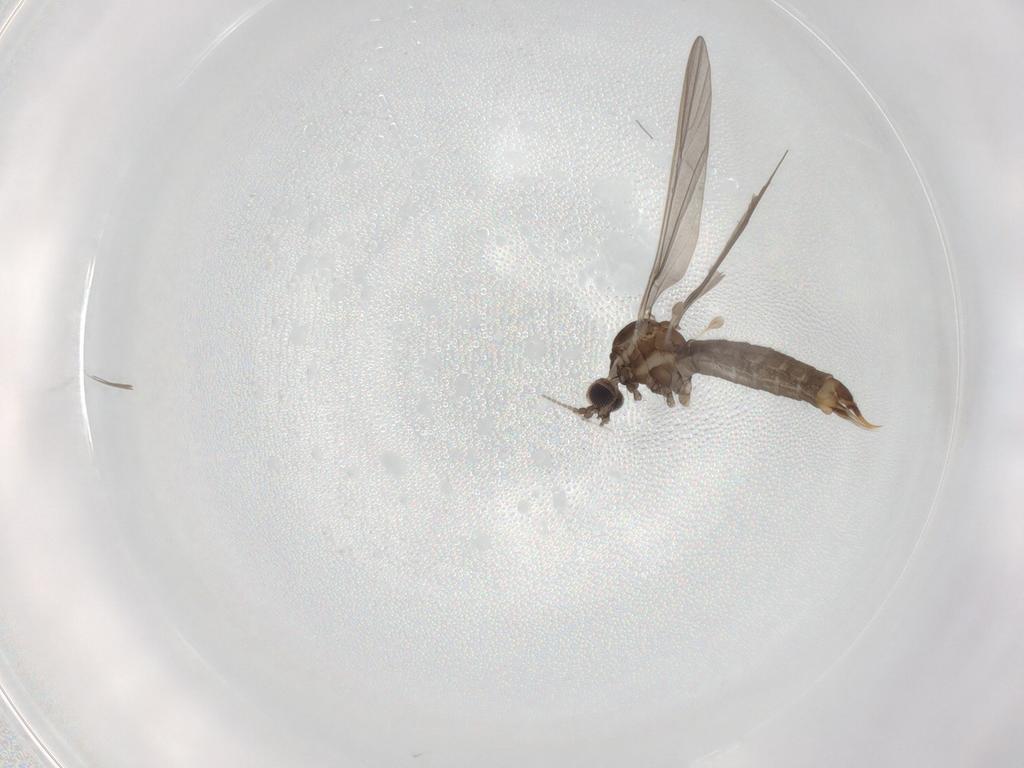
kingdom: Animalia
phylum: Arthropoda
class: Insecta
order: Diptera
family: Limoniidae
